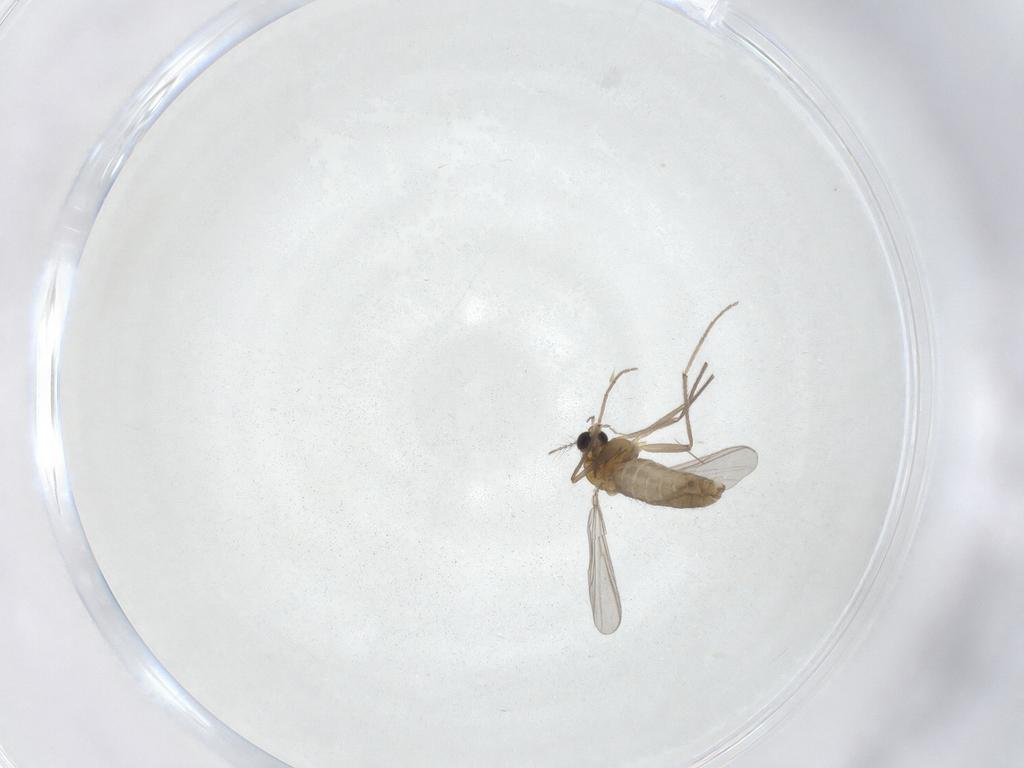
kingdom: Animalia
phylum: Arthropoda
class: Insecta
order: Diptera
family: Chironomidae
